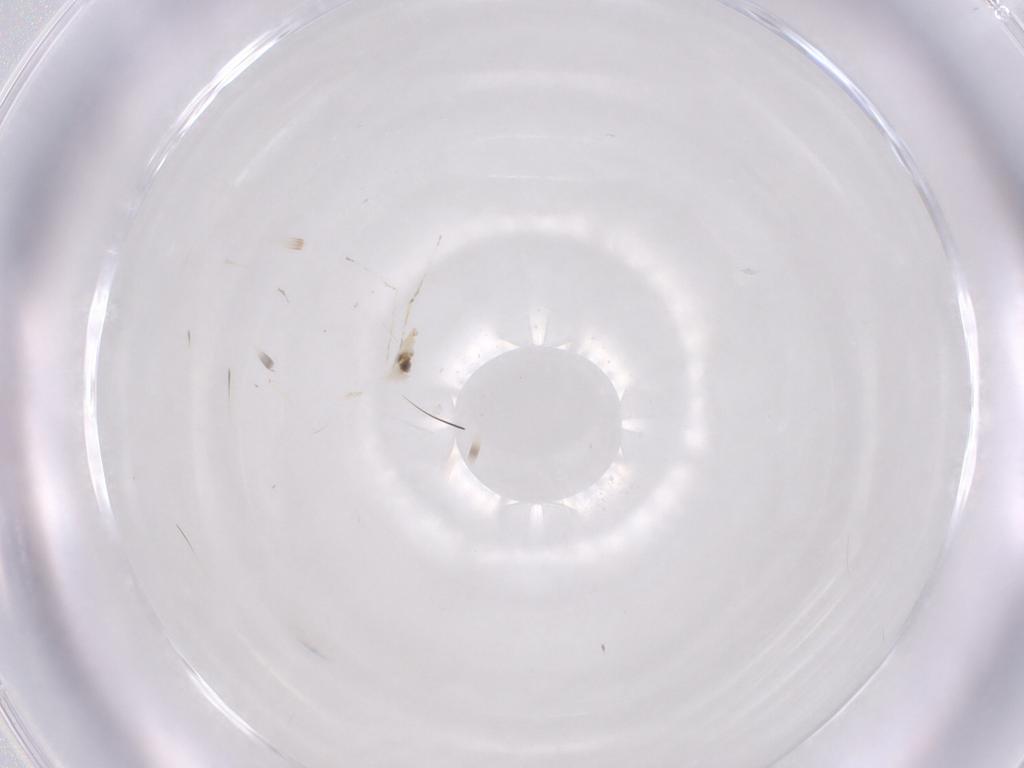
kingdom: Animalia
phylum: Arthropoda
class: Insecta
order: Diptera
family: Cecidomyiidae
